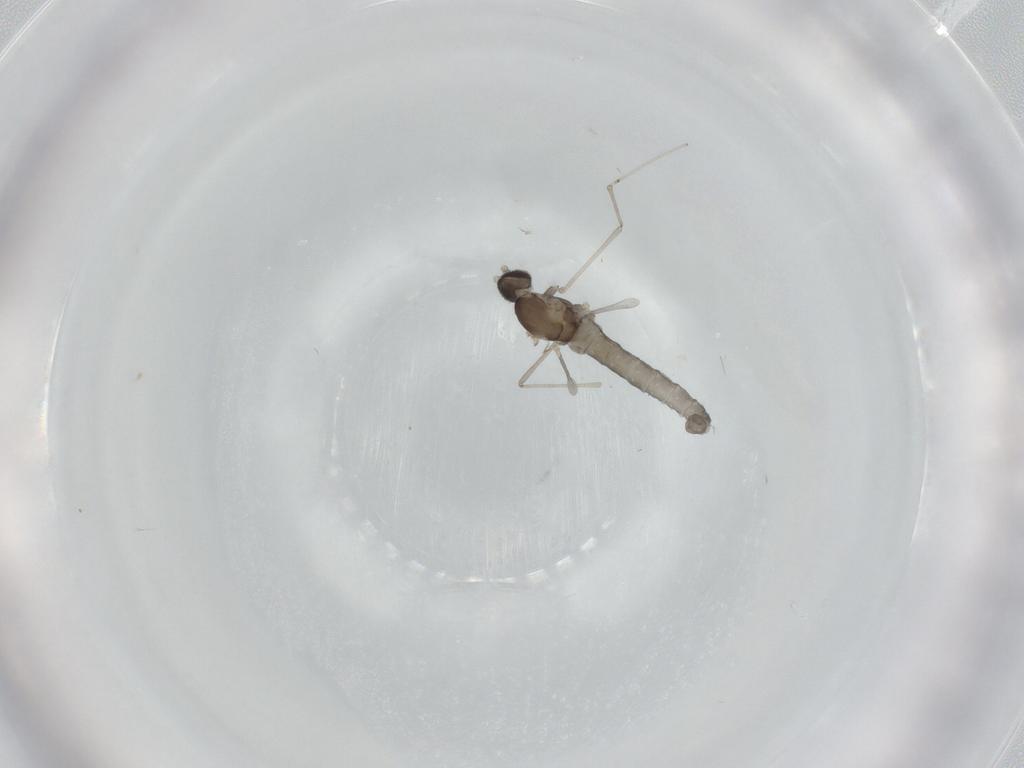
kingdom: Animalia
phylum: Arthropoda
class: Insecta
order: Diptera
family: Cecidomyiidae
